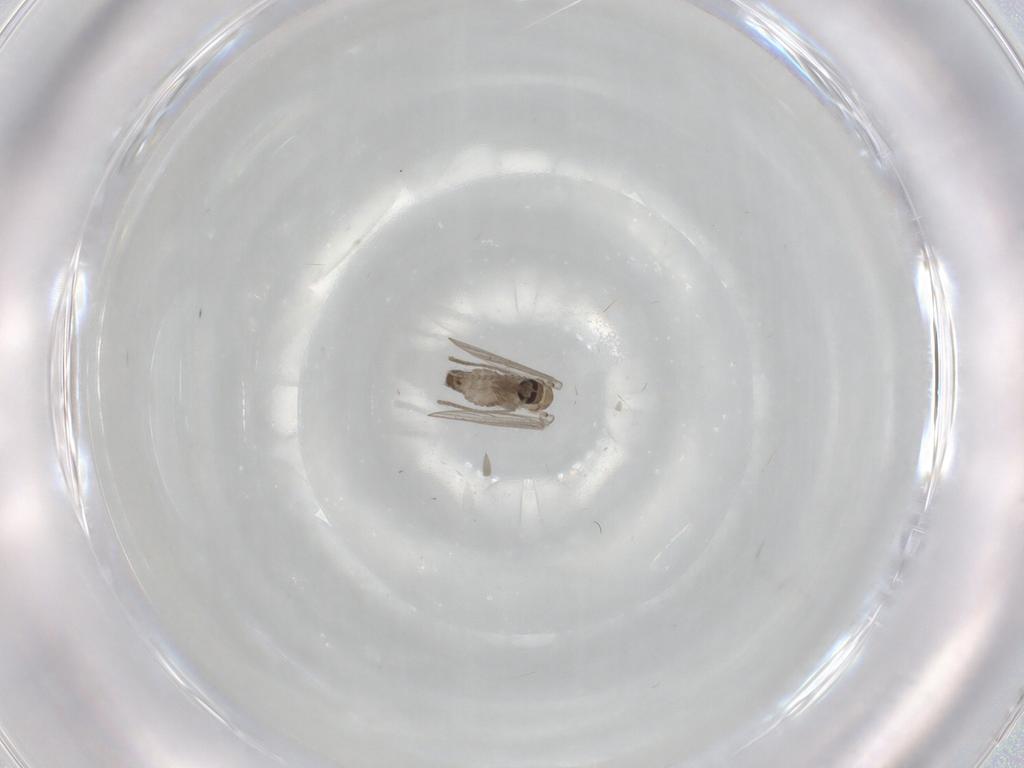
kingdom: Animalia
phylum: Arthropoda
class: Insecta
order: Diptera
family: Psychodidae
